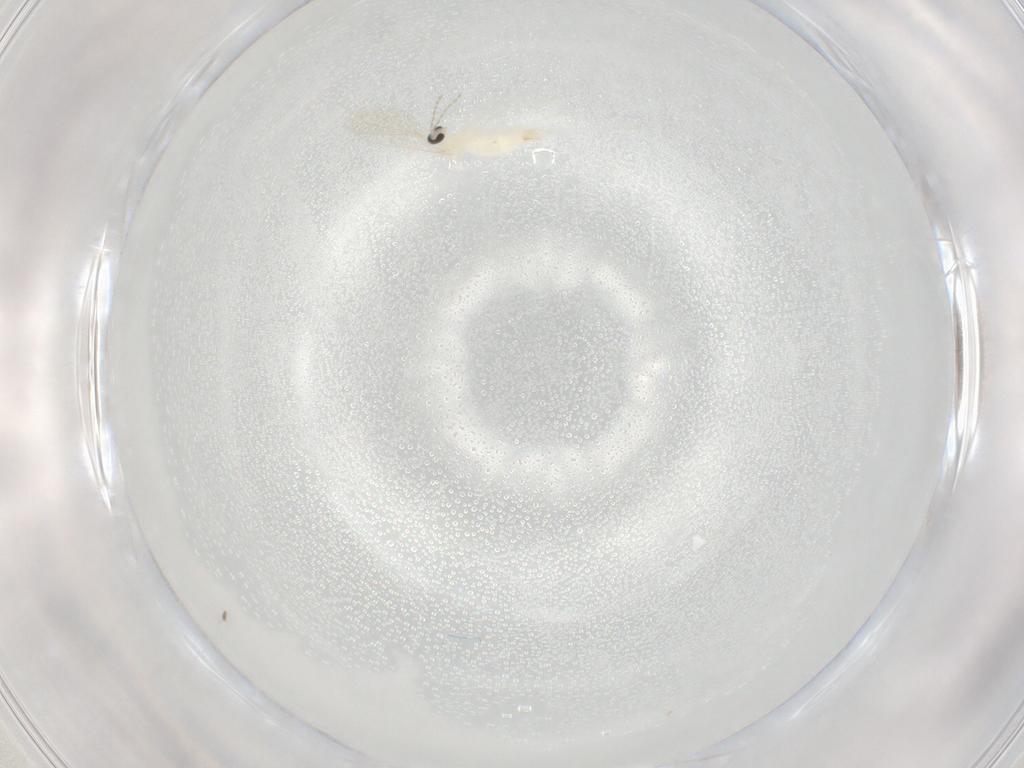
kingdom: Animalia
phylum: Arthropoda
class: Insecta
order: Diptera
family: Cecidomyiidae
